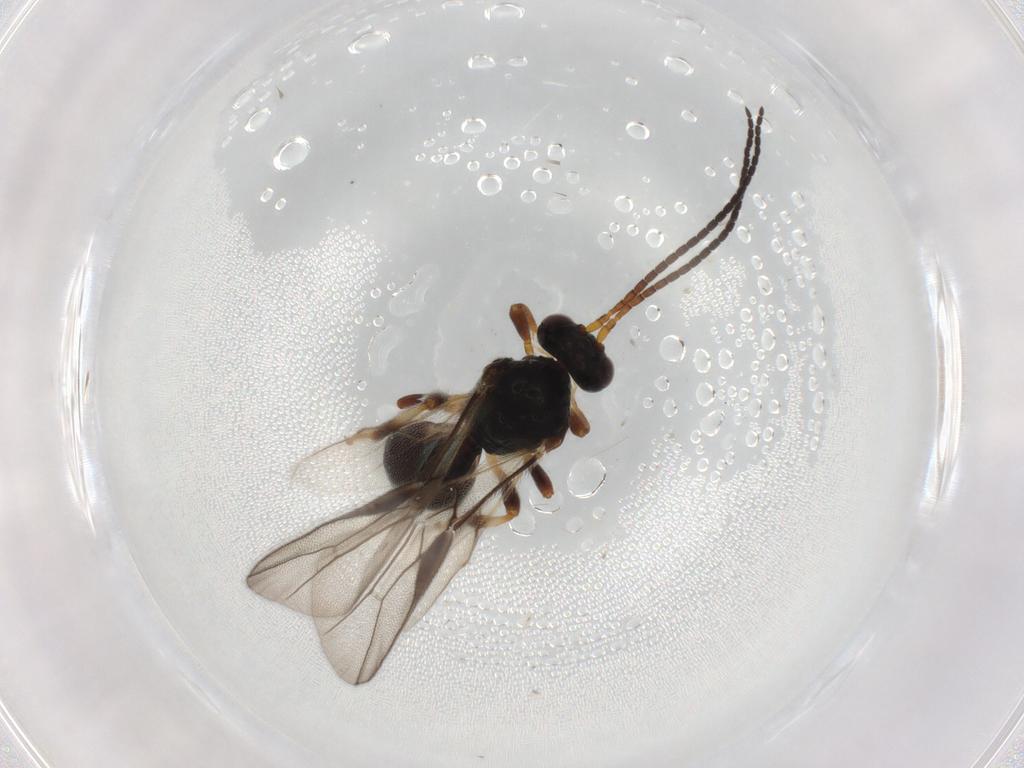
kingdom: Animalia
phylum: Arthropoda
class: Insecta
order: Hymenoptera
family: Braconidae
